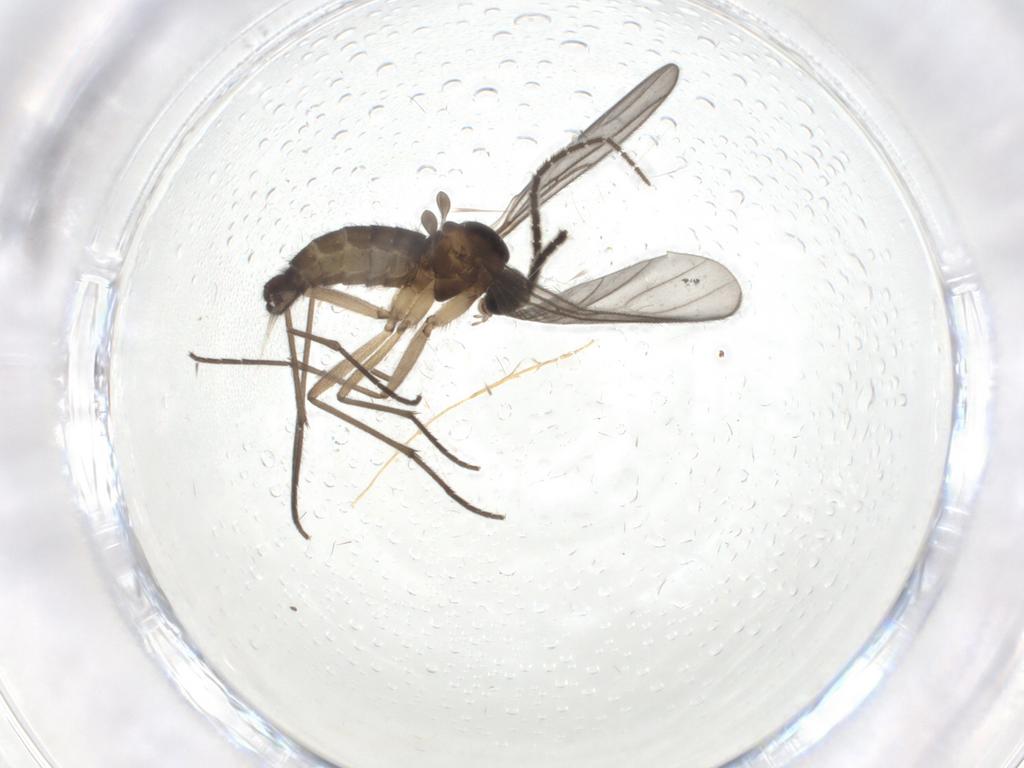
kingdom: Animalia
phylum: Arthropoda
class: Insecta
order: Diptera
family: Sciaridae
